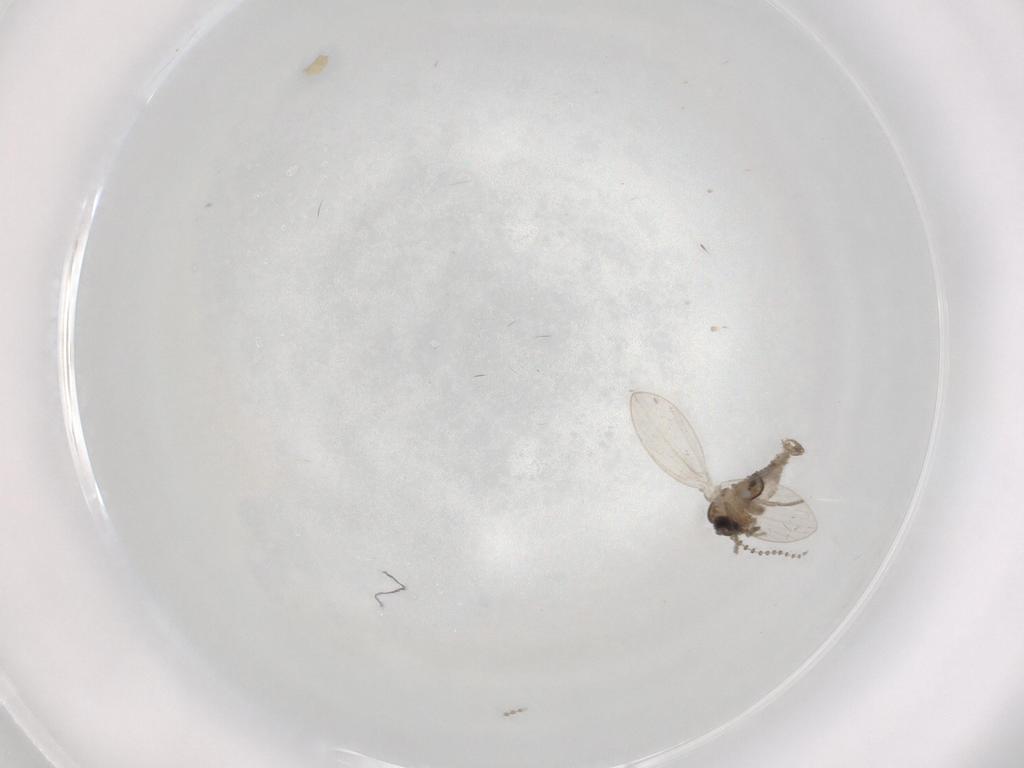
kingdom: Animalia
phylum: Arthropoda
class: Insecta
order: Diptera
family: Cecidomyiidae
